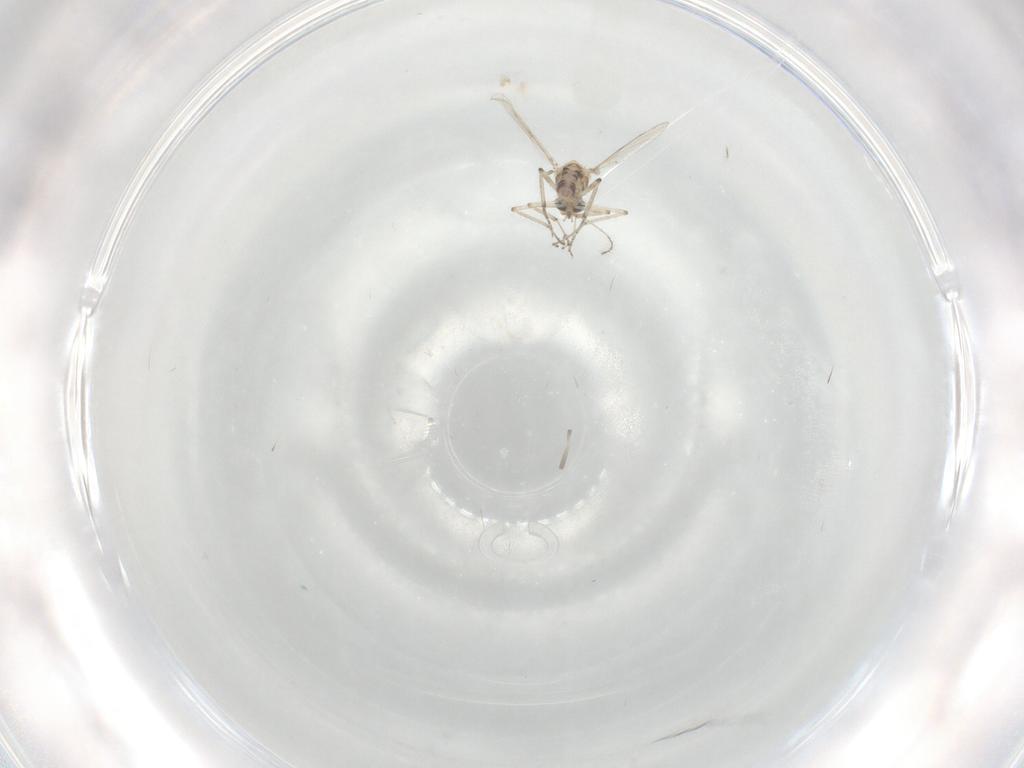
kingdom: Animalia
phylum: Arthropoda
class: Insecta
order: Diptera
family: Ceratopogonidae
